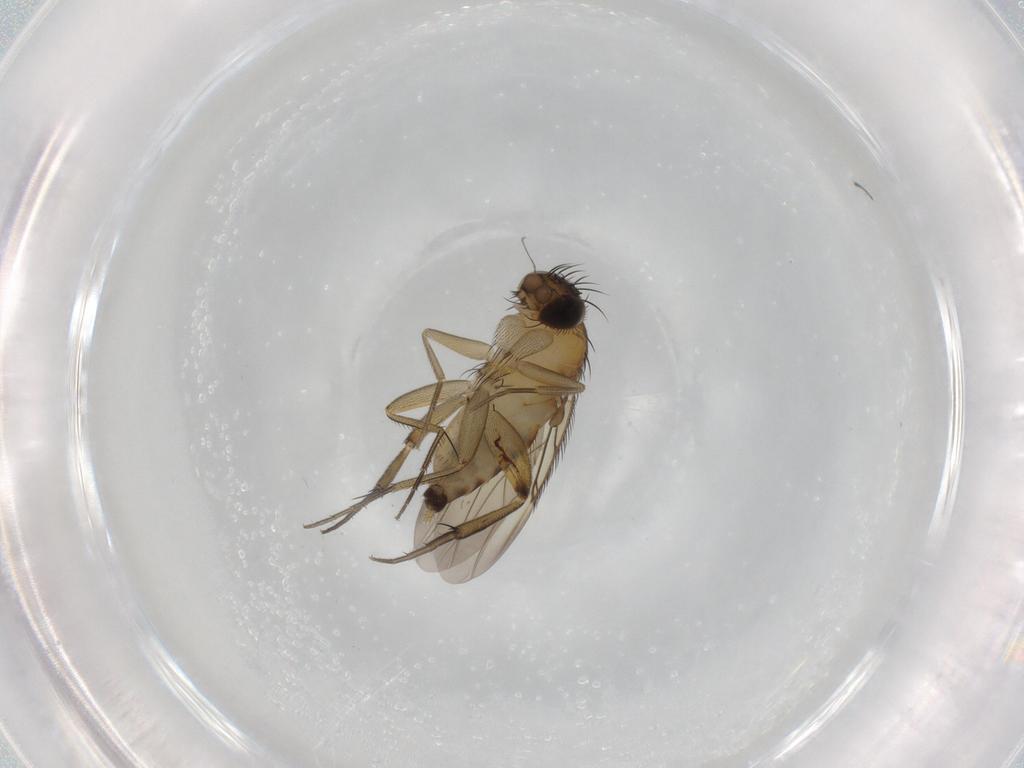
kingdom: Animalia
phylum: Arthropoda
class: Insecta
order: Diptera
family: Phoridae
